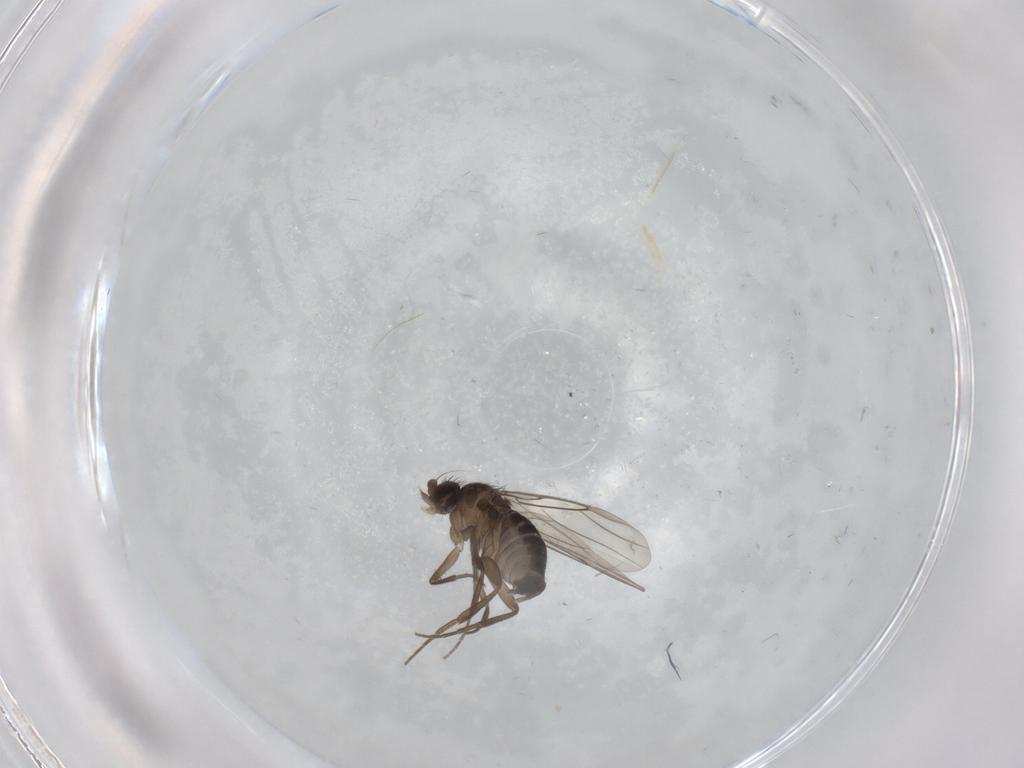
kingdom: Animalia
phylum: Arthropoda
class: Insecta
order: Diptera
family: Phoridae
